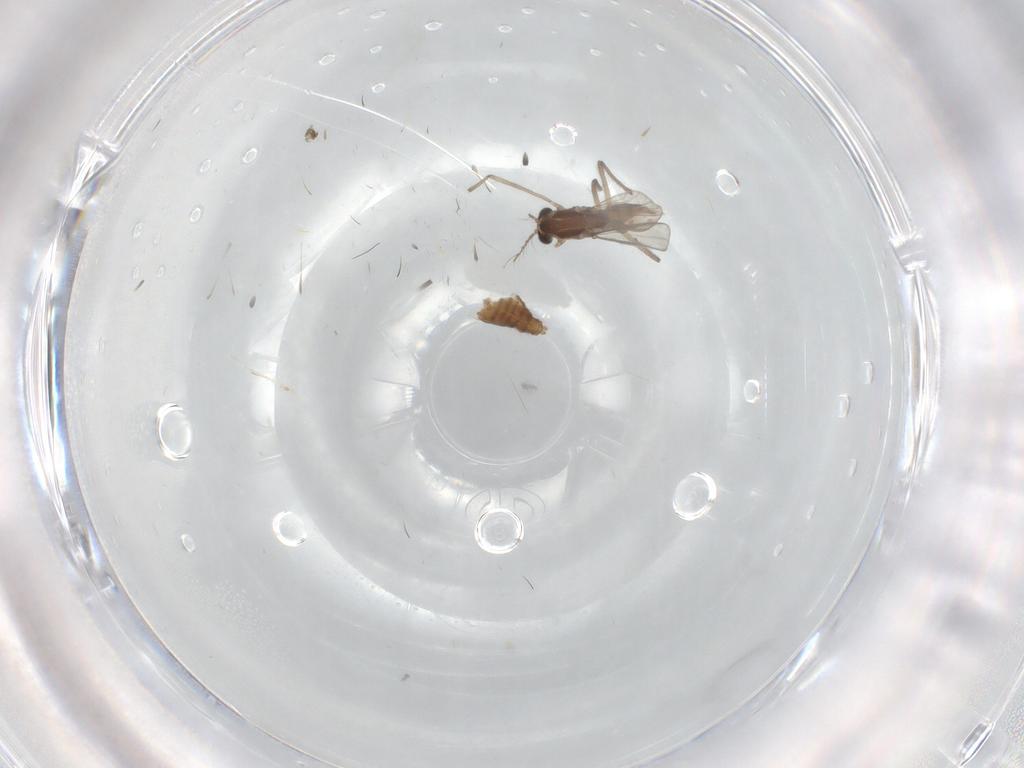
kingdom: Animalia
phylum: Arthropoda
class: Insecta
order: Diptera
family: Chironomidae
